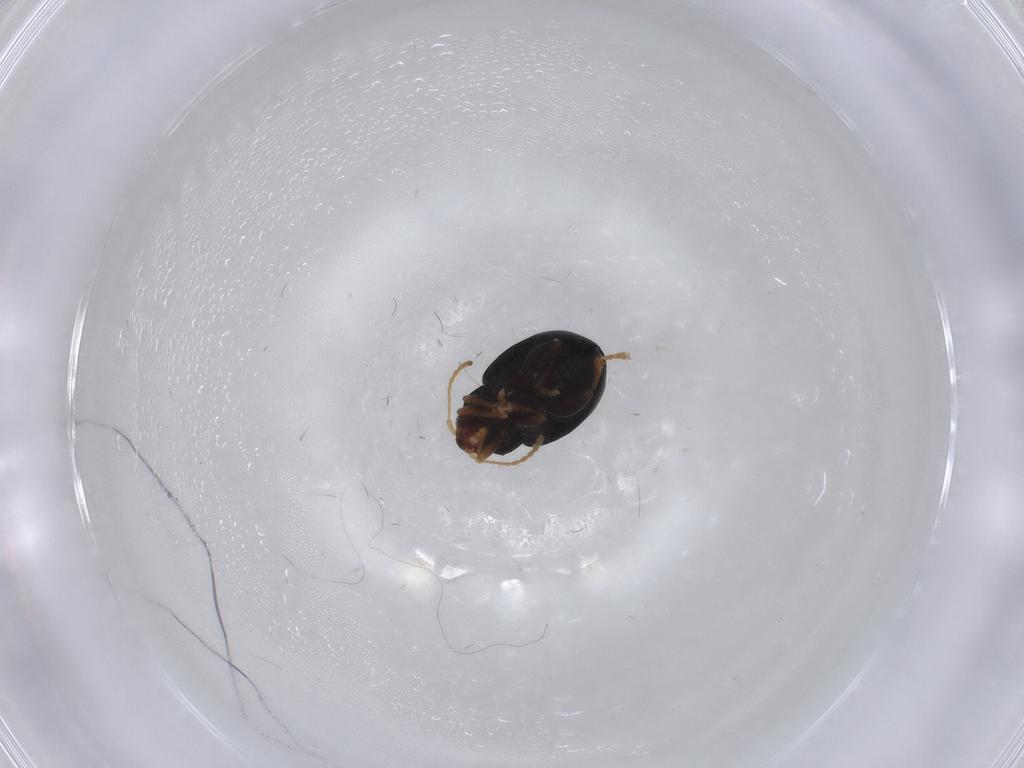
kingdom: Animalia
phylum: Arthropoda
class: Insecta
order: Coleoptera
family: Chrysomelidae
